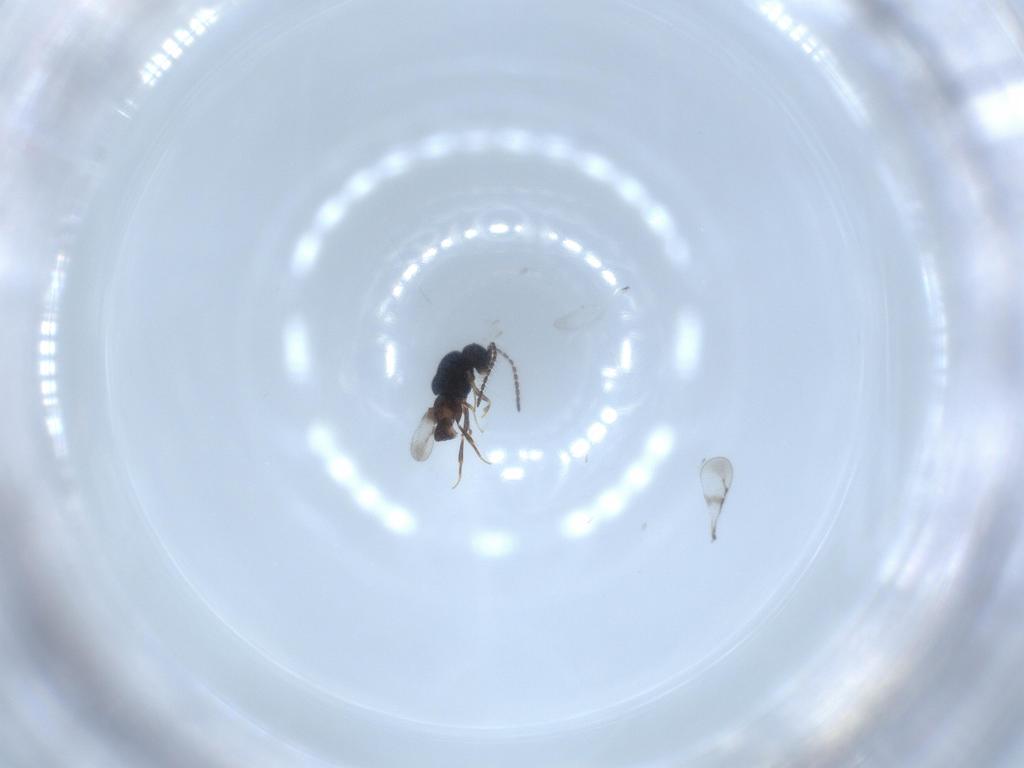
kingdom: Animalia
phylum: Arthropoda
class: Insecta
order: Hymenoptera
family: Ceraphronidae
